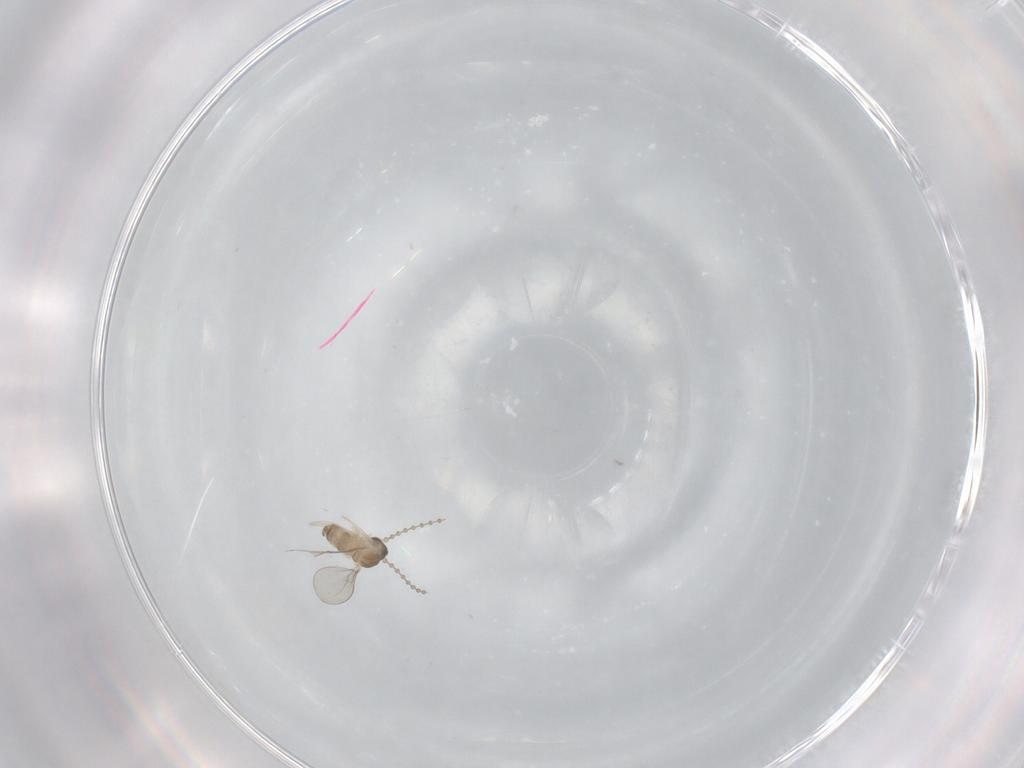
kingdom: Animalia
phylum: Arthropoda
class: Insecta
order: Diptera
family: Cecidomyiidae
